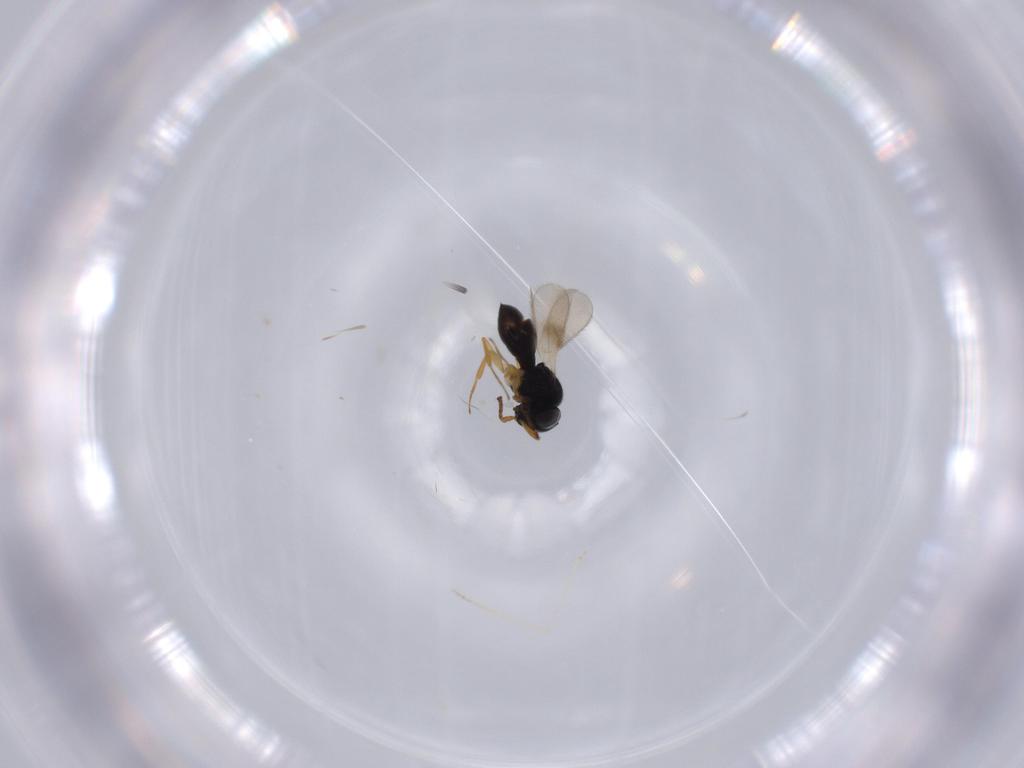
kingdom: Animalia
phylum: Arthropoda
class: Insecta
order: Hymenoptera
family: Scelionidae
